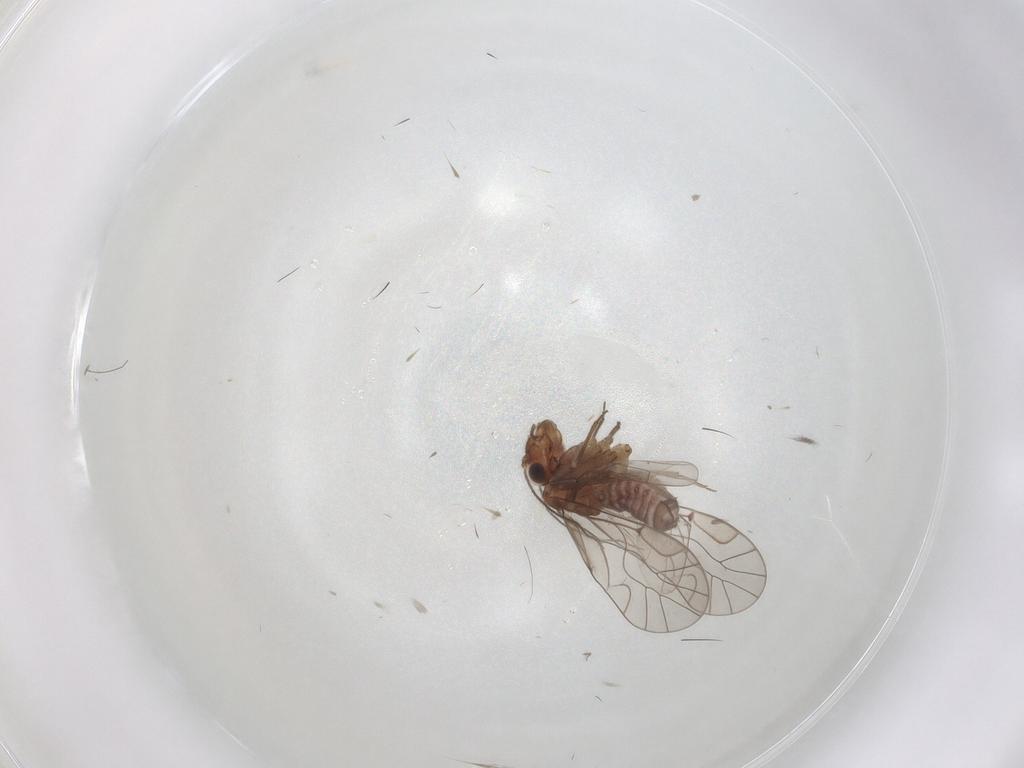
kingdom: Animalia
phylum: Arthropoda
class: Insecta
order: Psocodea
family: Lachesillidae
